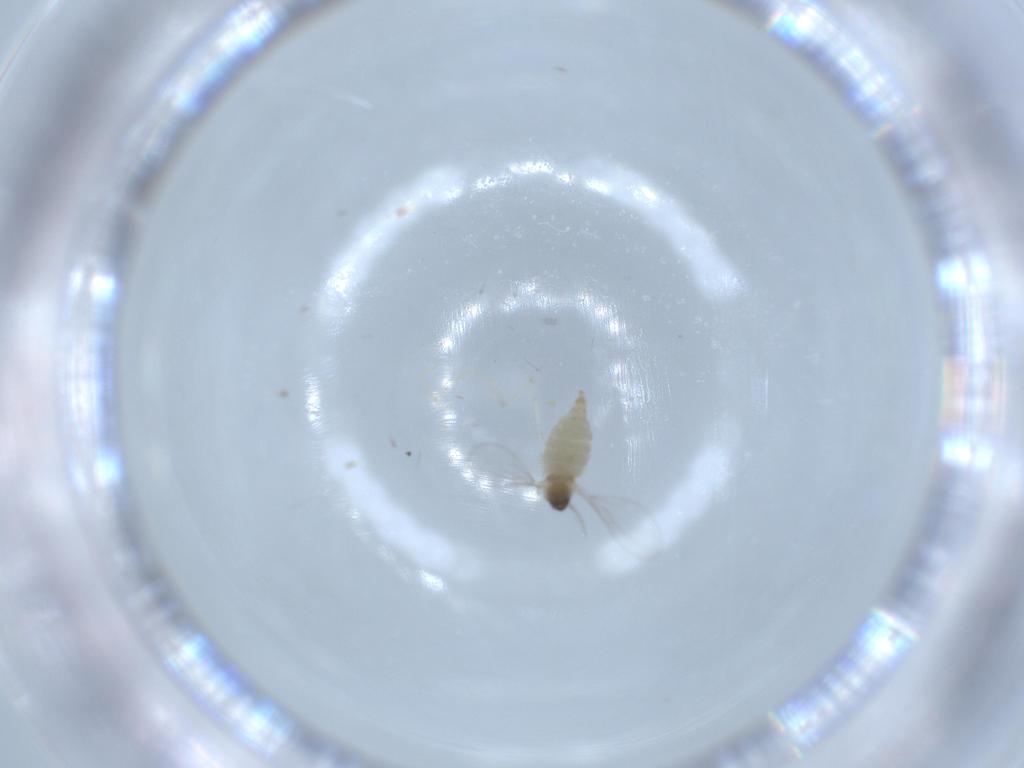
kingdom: Animalia
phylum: Arthropoda
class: Insecta
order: Diptera
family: Cecidomyiidae
